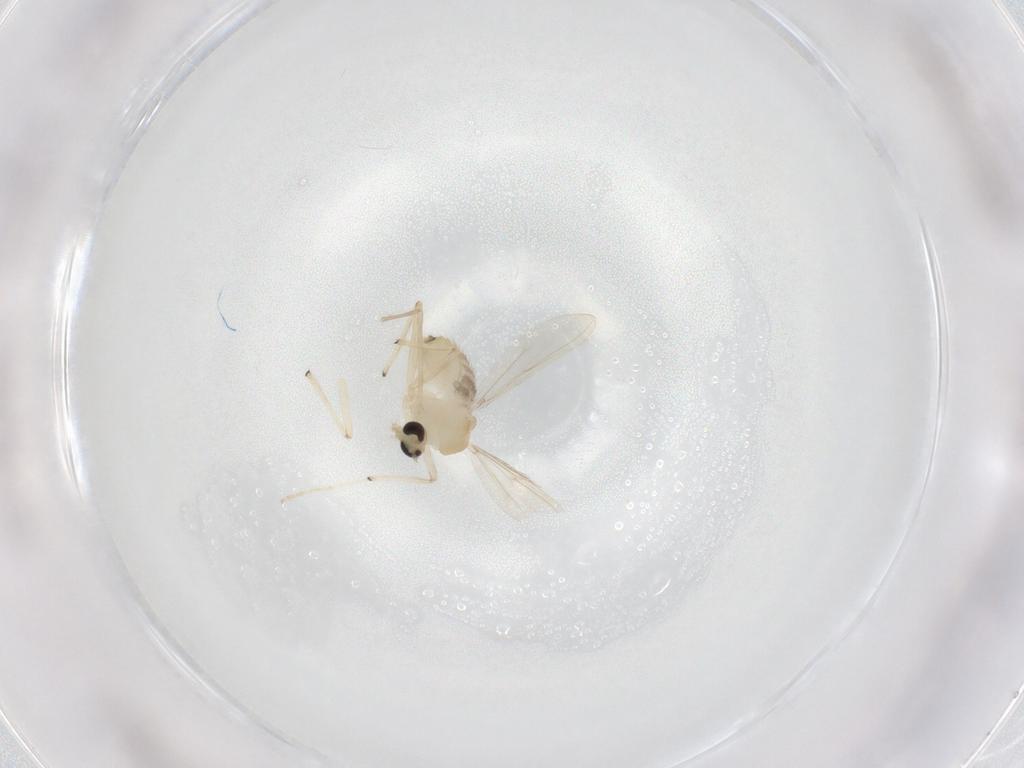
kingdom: Animalia
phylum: Arthropoda
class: Insecta
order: Diptera
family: Chironomidae
